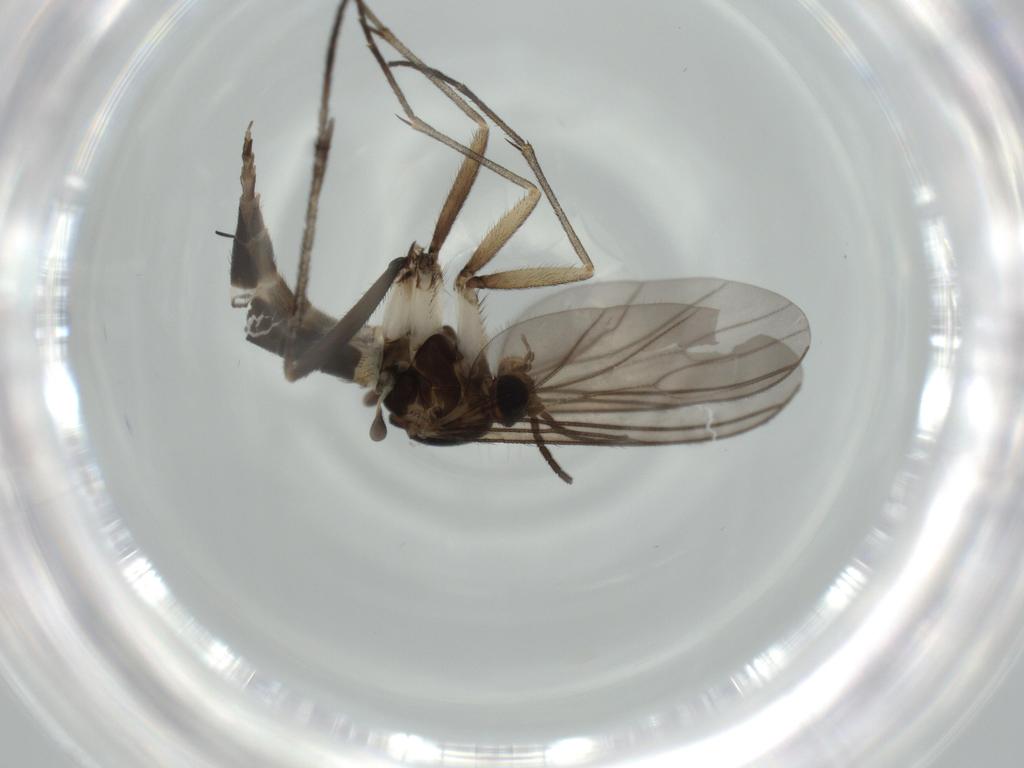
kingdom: Animalia
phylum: Arthropoda
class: Insecta
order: Diptera
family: Sciaridae
